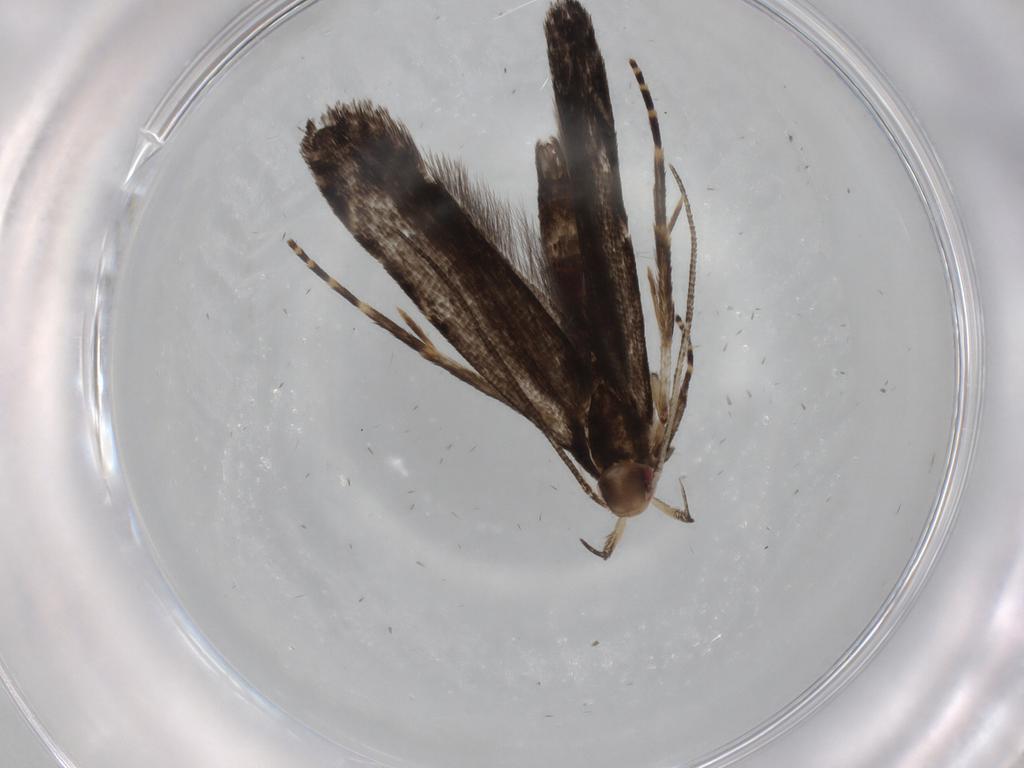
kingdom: Animalia
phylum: Arthropoda
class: Insecta
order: Lepidoptera
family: Gelechiidae
